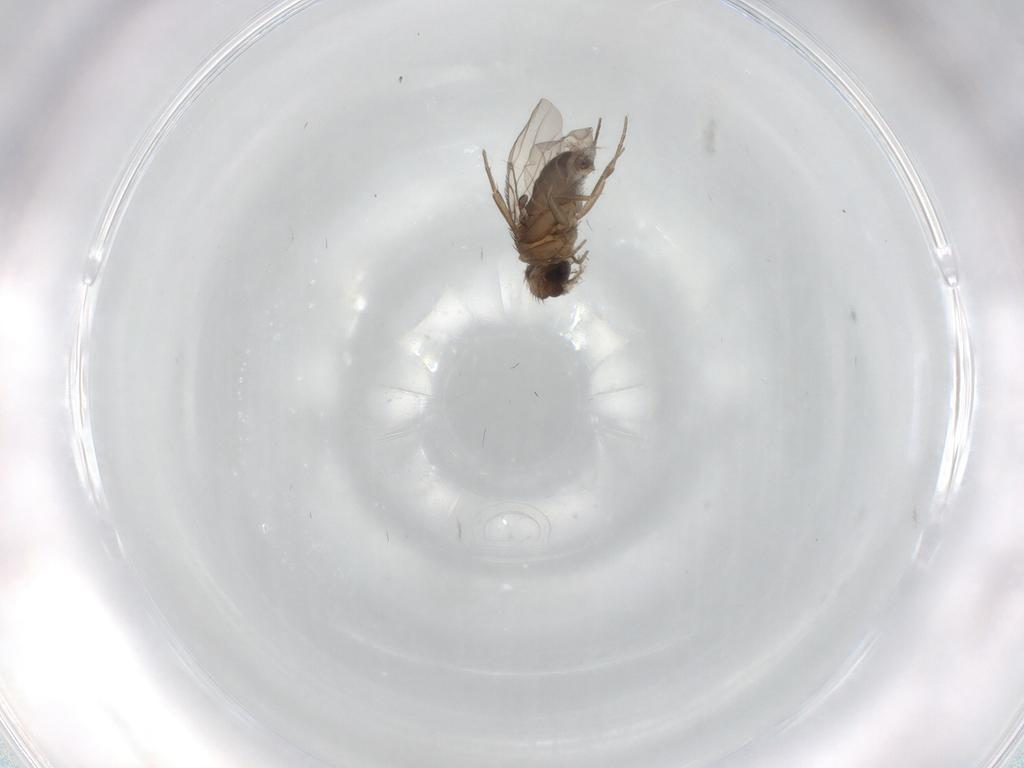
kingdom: Animalia
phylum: Arthropoda
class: Insecta
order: Diptera
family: Phoridae
